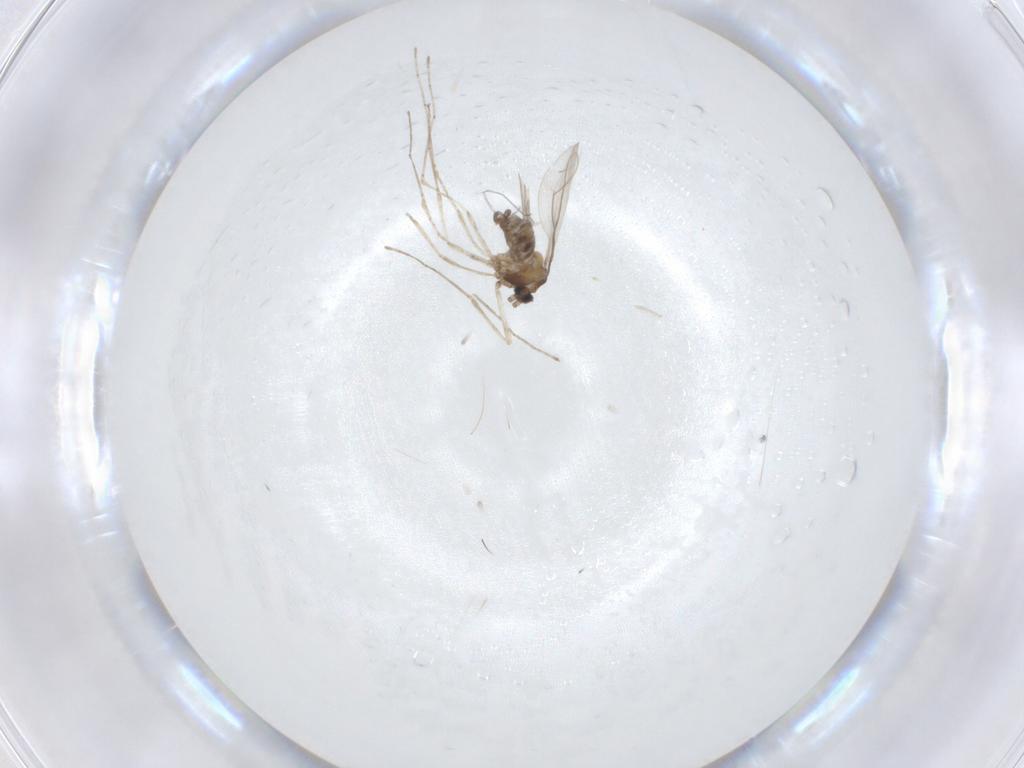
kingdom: Animalia
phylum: Arthropoda
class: Insecta
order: Diptera
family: Cecidomyiidae
